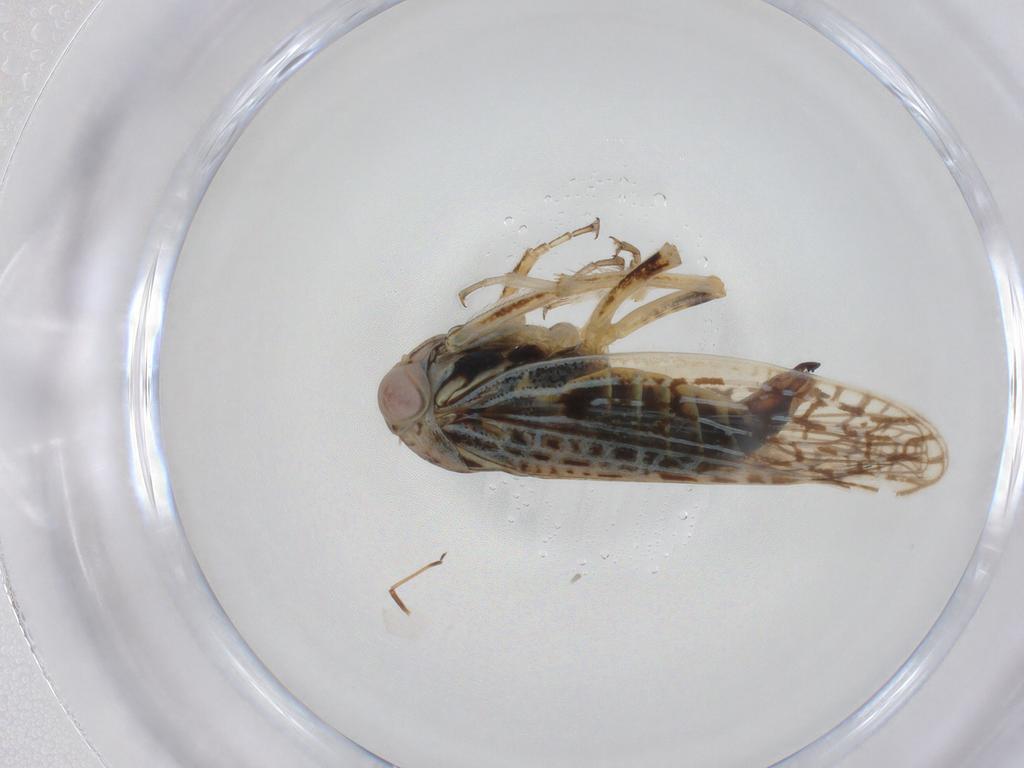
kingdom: Animalia
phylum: Arthropoda
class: Insecta
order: Hemiptera
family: Cicadellidae
